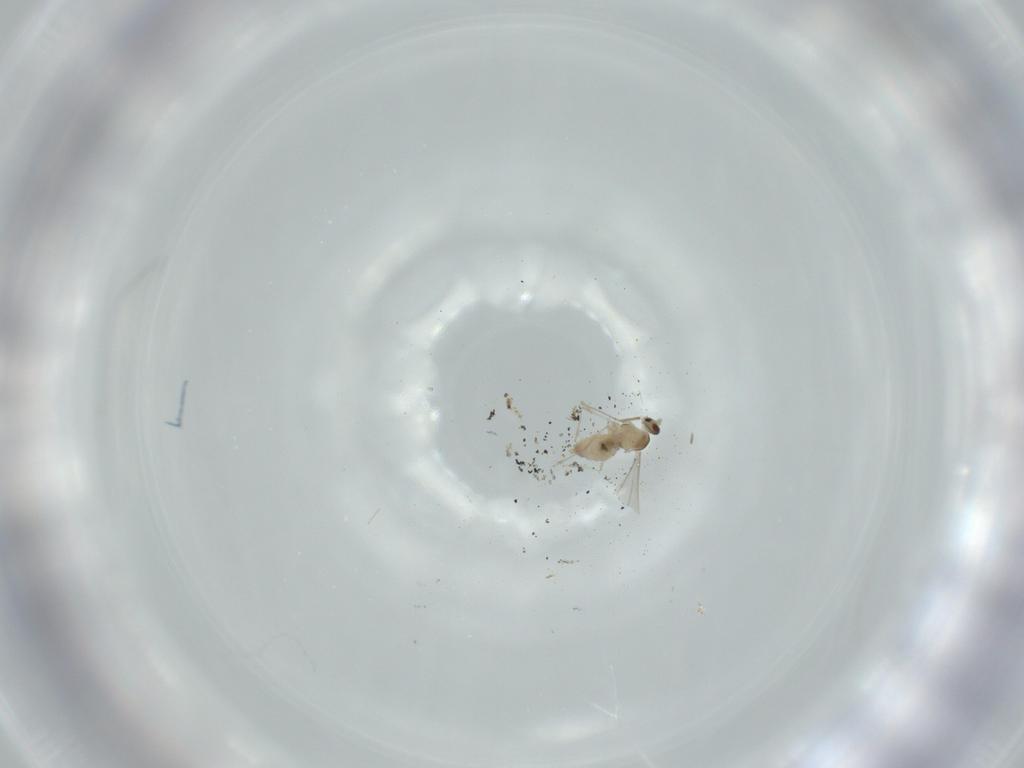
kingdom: Animalia
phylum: Arthropoda
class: Insecta
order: Diptera
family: Cecidomyiidae
